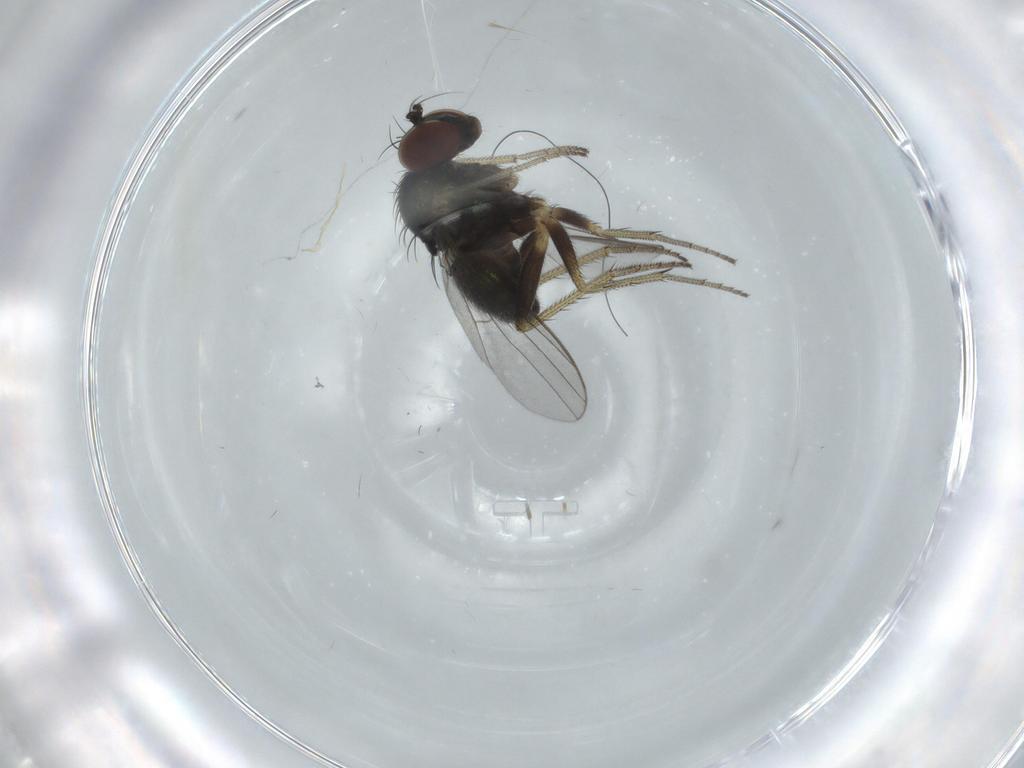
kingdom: Animalia
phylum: Arthropoda
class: Insecta
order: Diptera
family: Dolichopodidae
